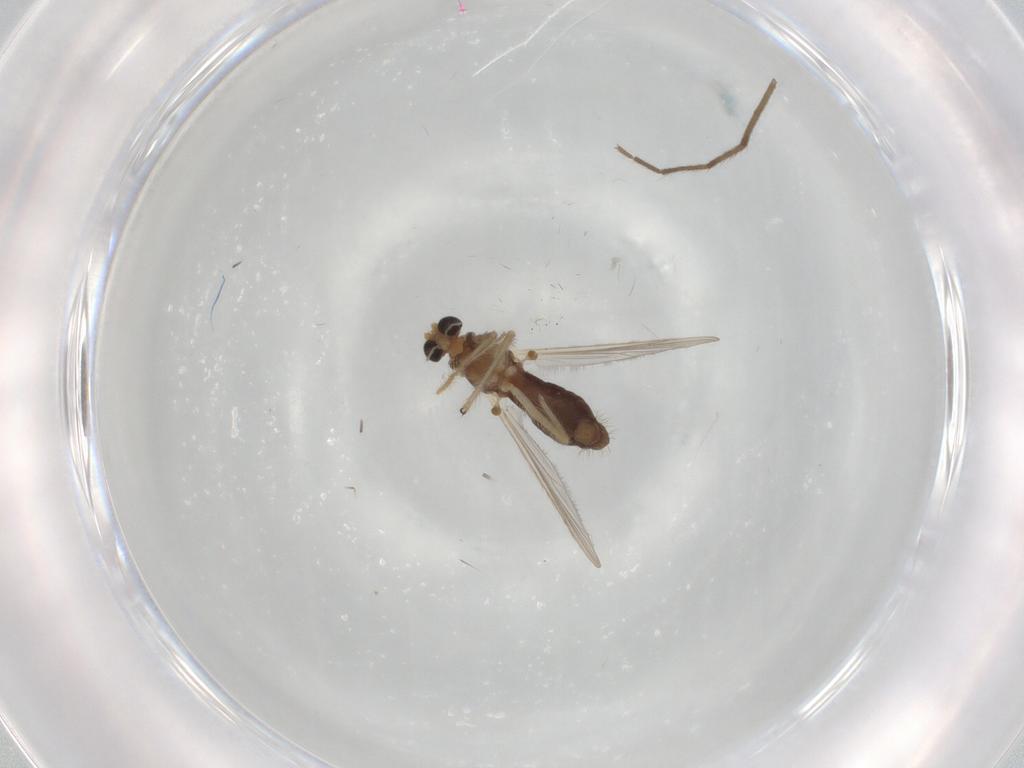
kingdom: Animalia
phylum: Arthropoda
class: Insecta
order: Diptera
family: Chironomidae
